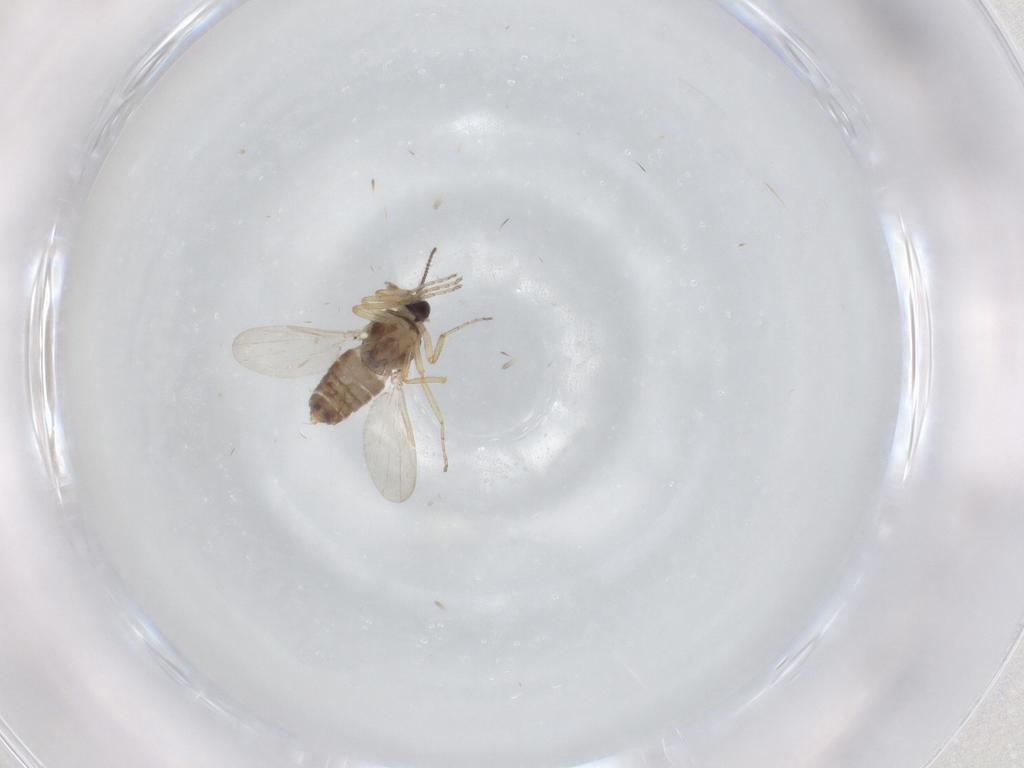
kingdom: Animalia
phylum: Arthropoda
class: Insecta
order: Diptera
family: Ceratopogonidae
